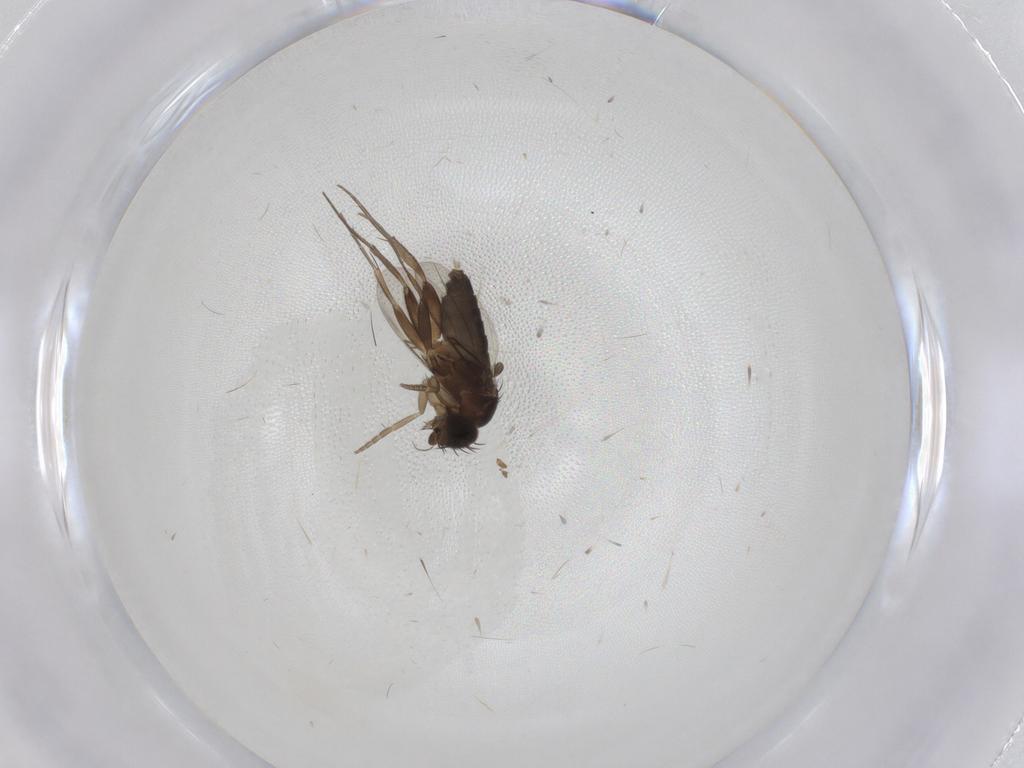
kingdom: Animalia
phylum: Arthropoda
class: Insecta
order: Diptera
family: Phoridae
